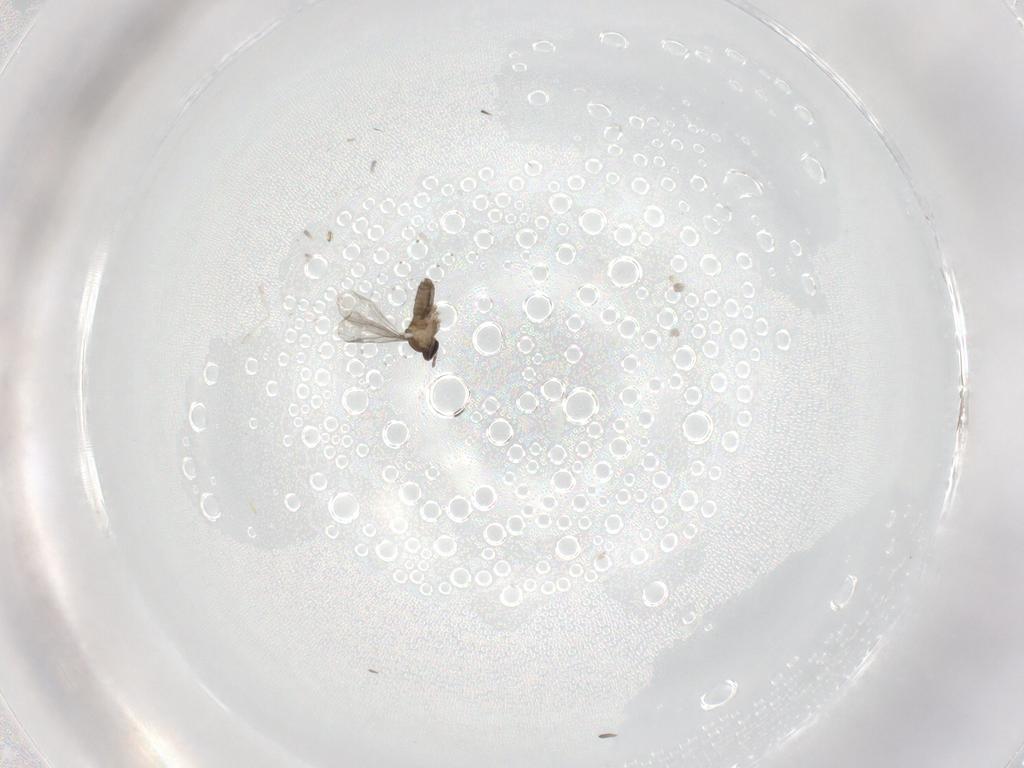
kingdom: Animalia
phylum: Arthropoda
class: Insecta
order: Diptera
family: Cecidomyiidae
